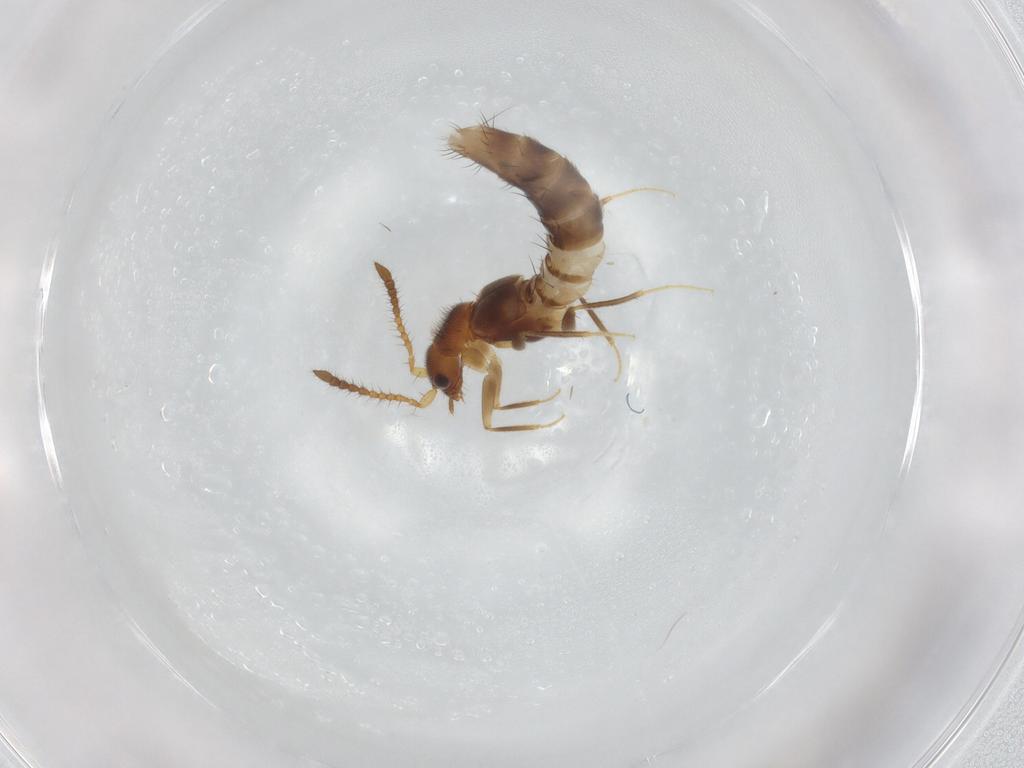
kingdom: Animalia
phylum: Arthropoda
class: Insecta
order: Coleoptera
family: Staphylinidae
